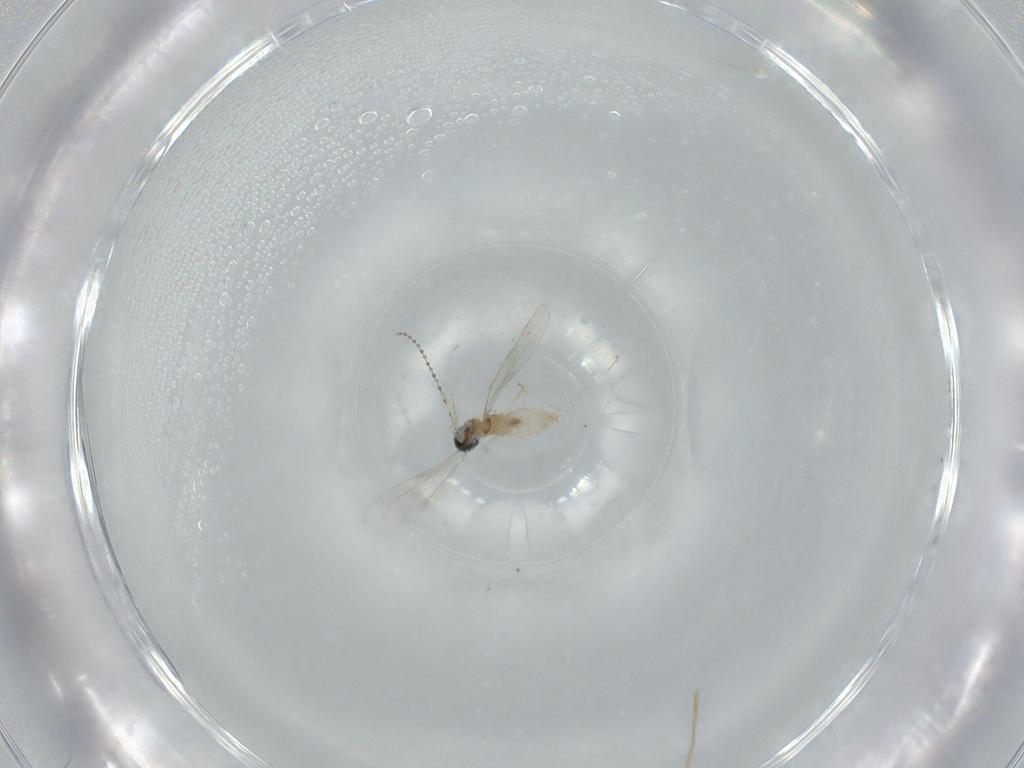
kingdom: Animalia
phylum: Arthropoda
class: Insecta
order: Diptera
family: Cecidomyiidae
